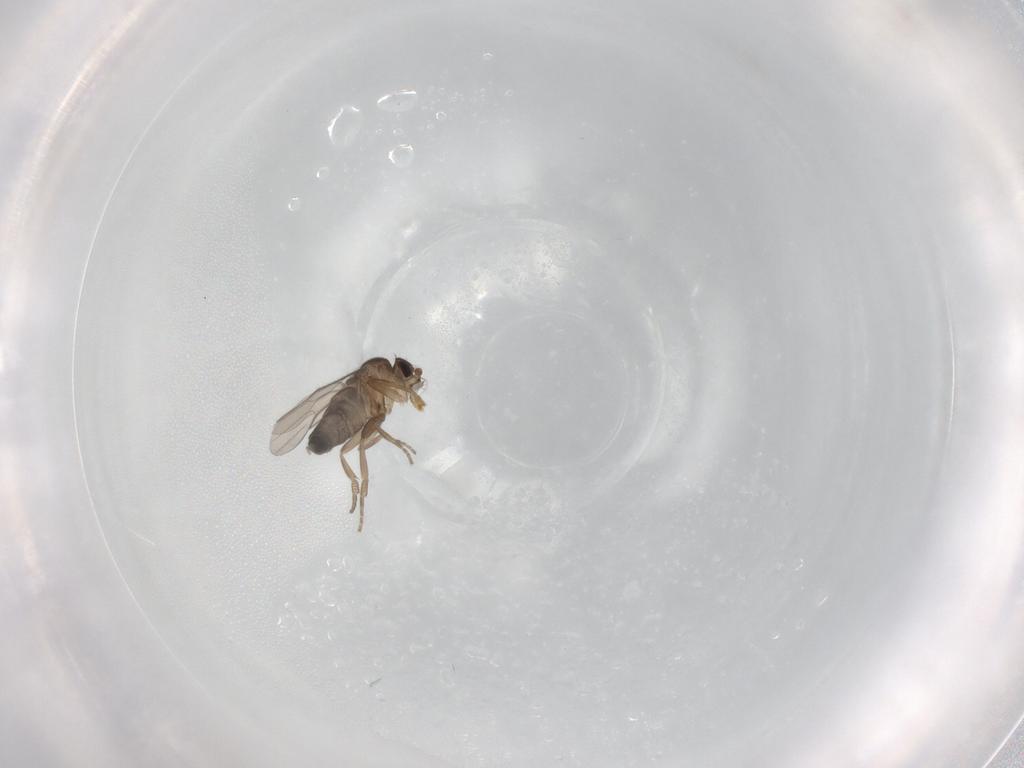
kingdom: Animalia
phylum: Arthropoda
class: Insecta
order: Diptera
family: Phoridae
